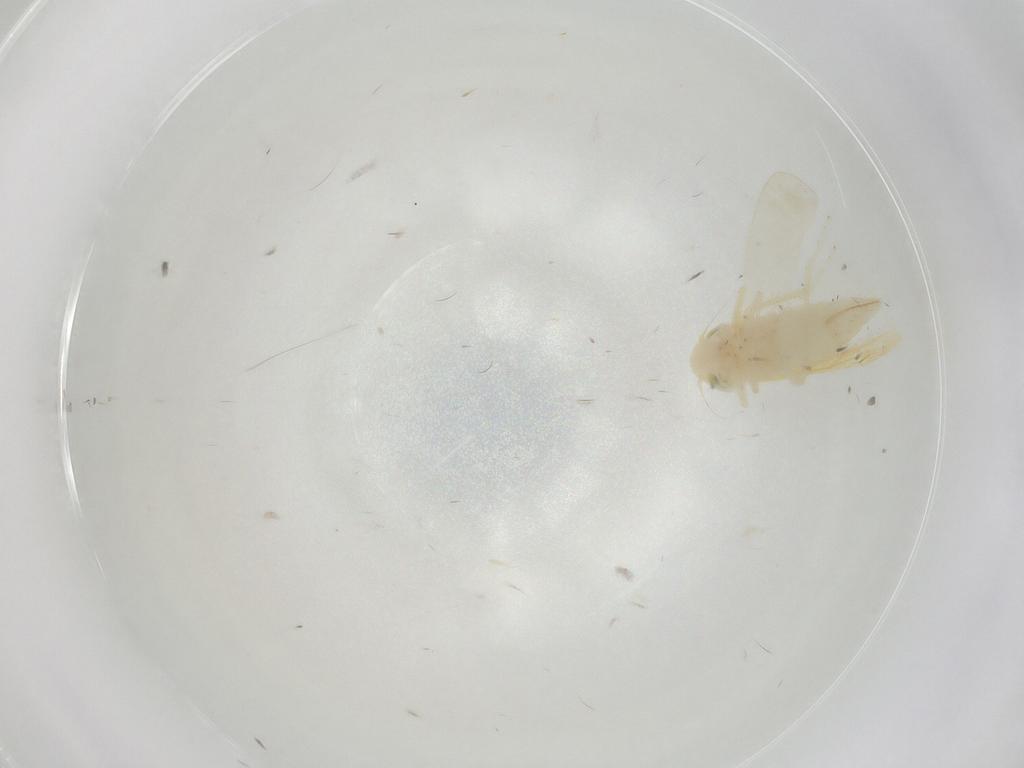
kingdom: Animalia
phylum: Arthropoda
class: Insecta
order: Hemiptera
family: Cicadellidae
